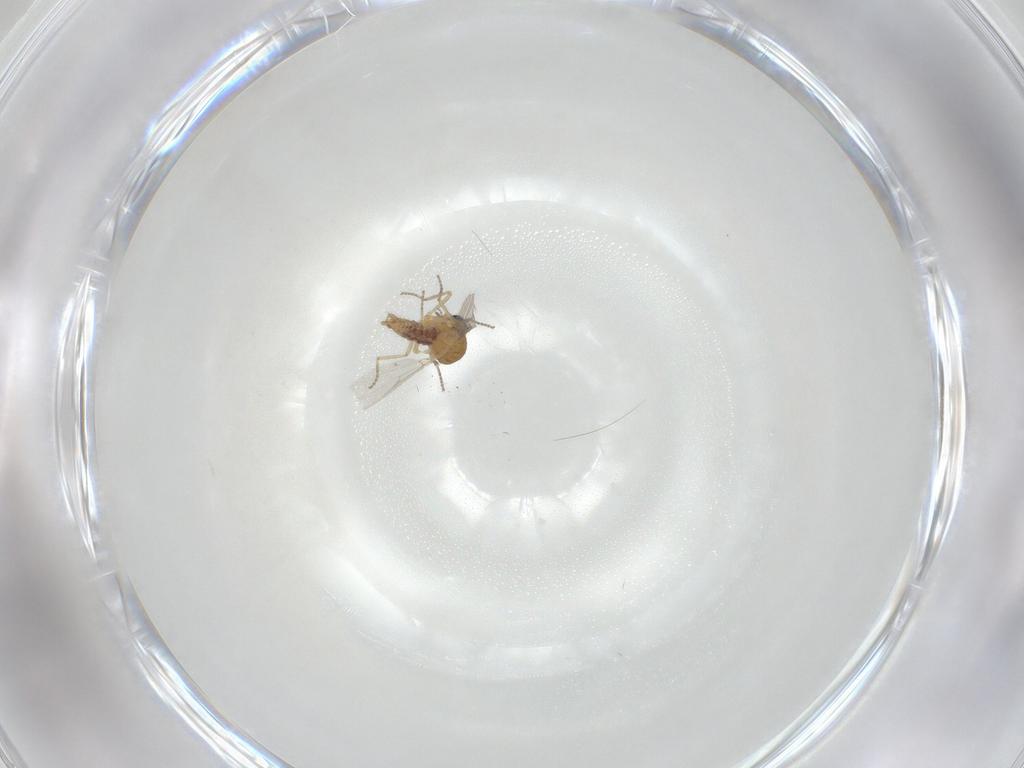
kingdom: Animalia
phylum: Arthropoda
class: Insecta
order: Diptera
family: Ceratopogonidae
